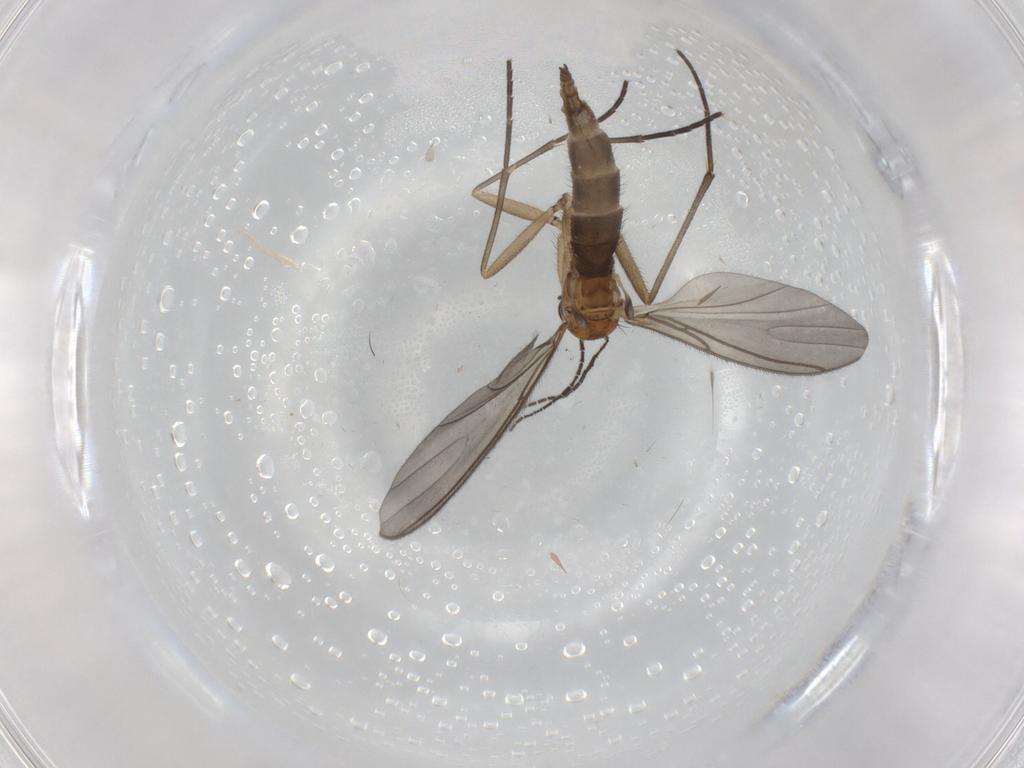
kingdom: Animalia
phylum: Arthropoda
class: Insecta
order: Diptera
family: Sciaridae
